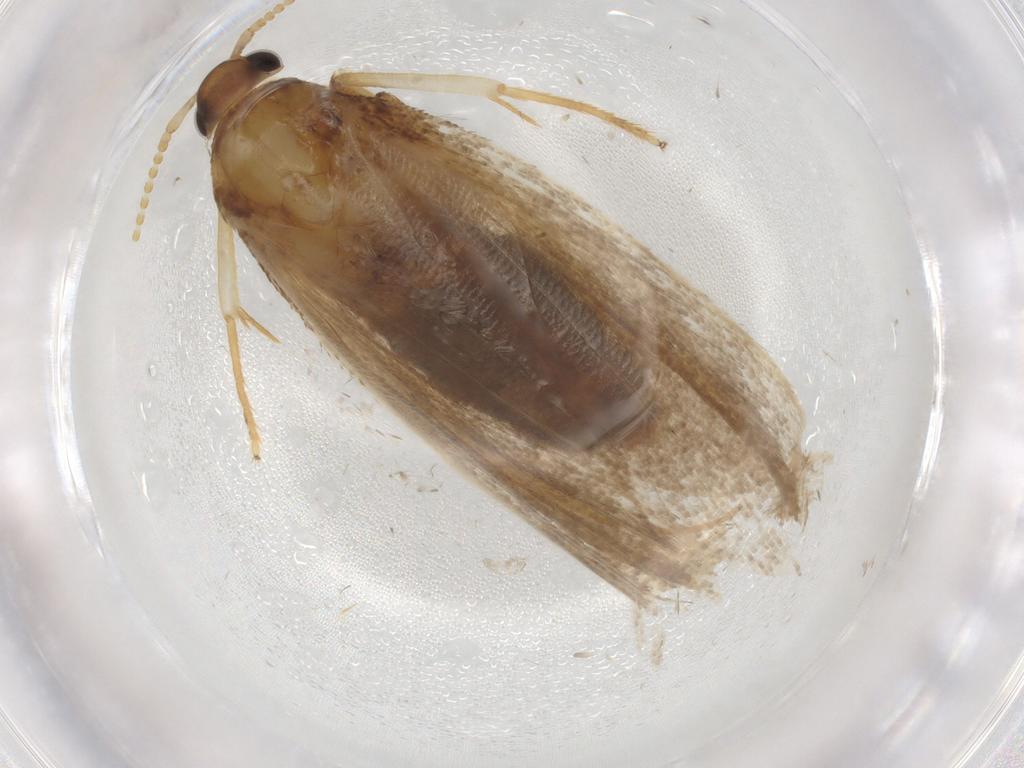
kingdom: Animalia
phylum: Arthropoda
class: Insecta
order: Lepidoptera
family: Lecithoceridae
